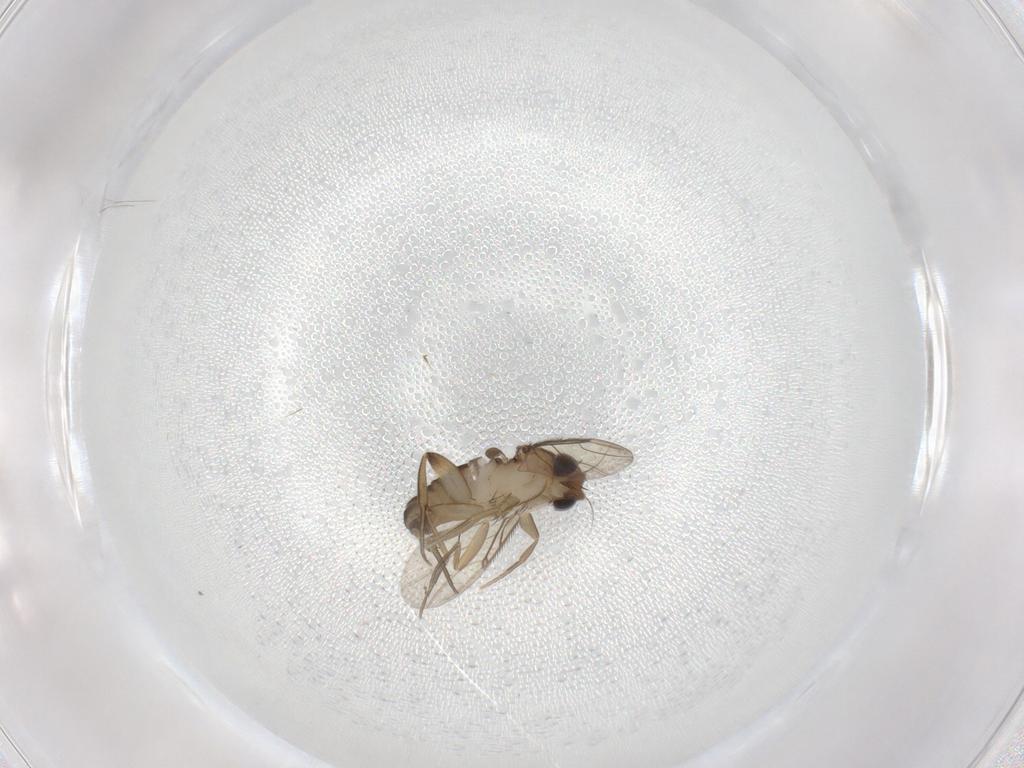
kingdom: Animalia
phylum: Arthropoda
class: Insecta
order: Diptera
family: Phoridae
